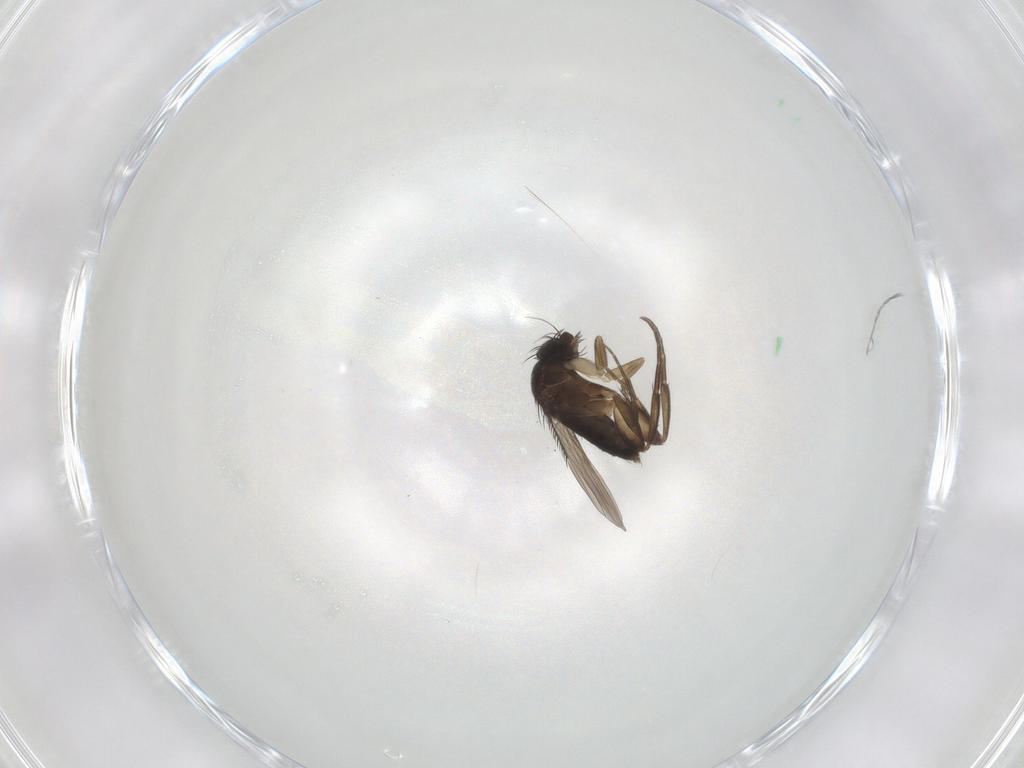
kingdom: Animalia
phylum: Arthropoda
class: Insecta
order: Diptera
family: Phoridae
